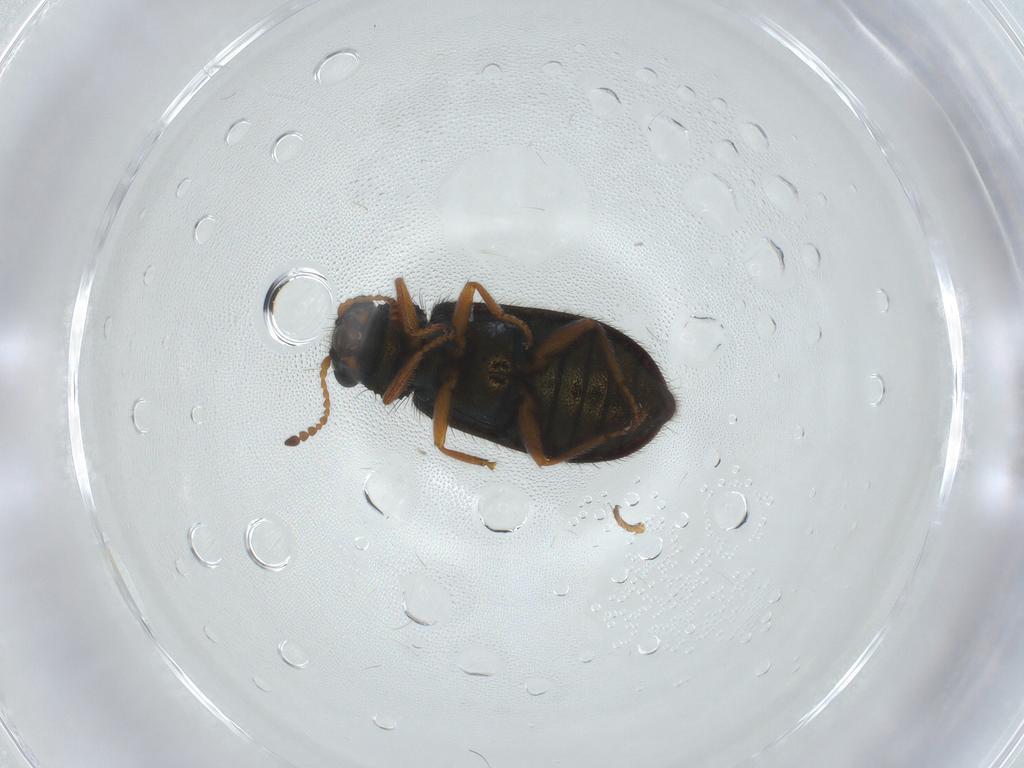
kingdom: Animalia
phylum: Arthropoda
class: Insecta
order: Coleoptera
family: Melyridae
